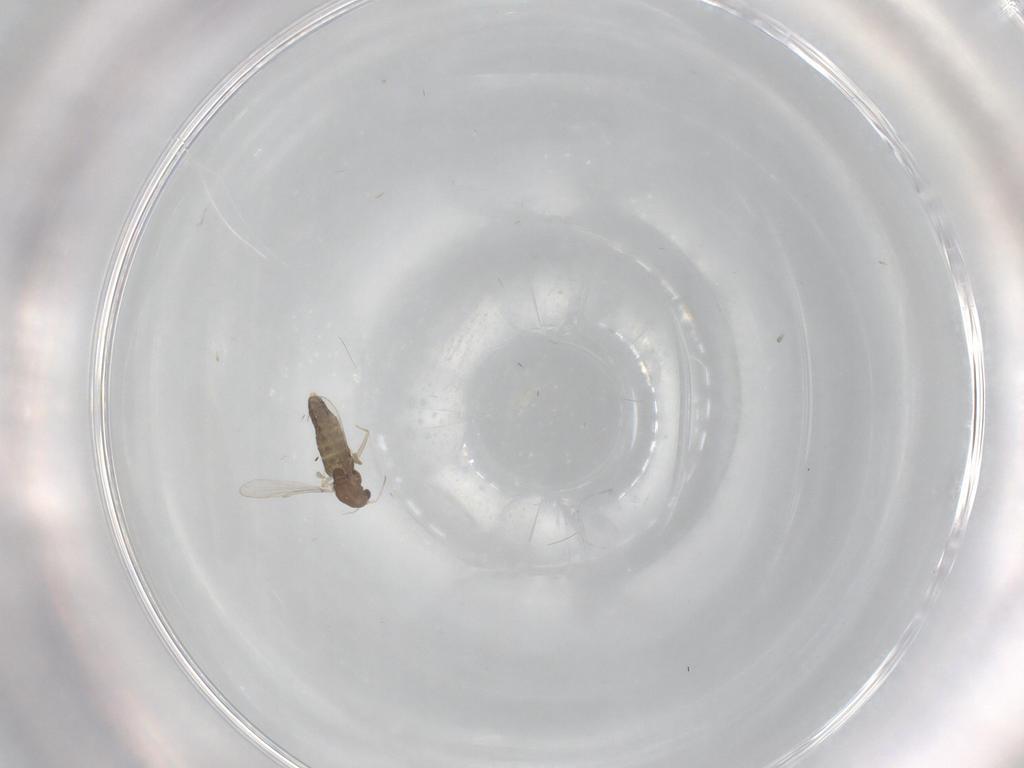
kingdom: Animalia
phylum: Arthropoda
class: Insecta
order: Diptera
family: Chironomidae
